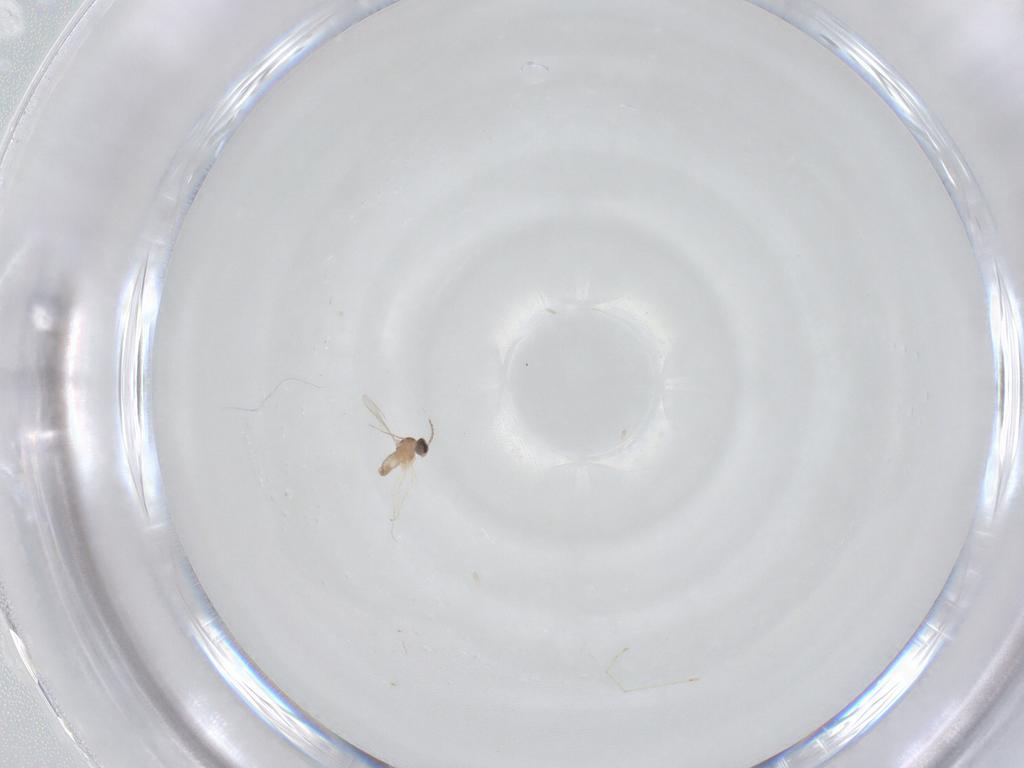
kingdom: Animalia
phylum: Arthropoda
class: Insecta
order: Diptera
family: Cecidomyiidae
